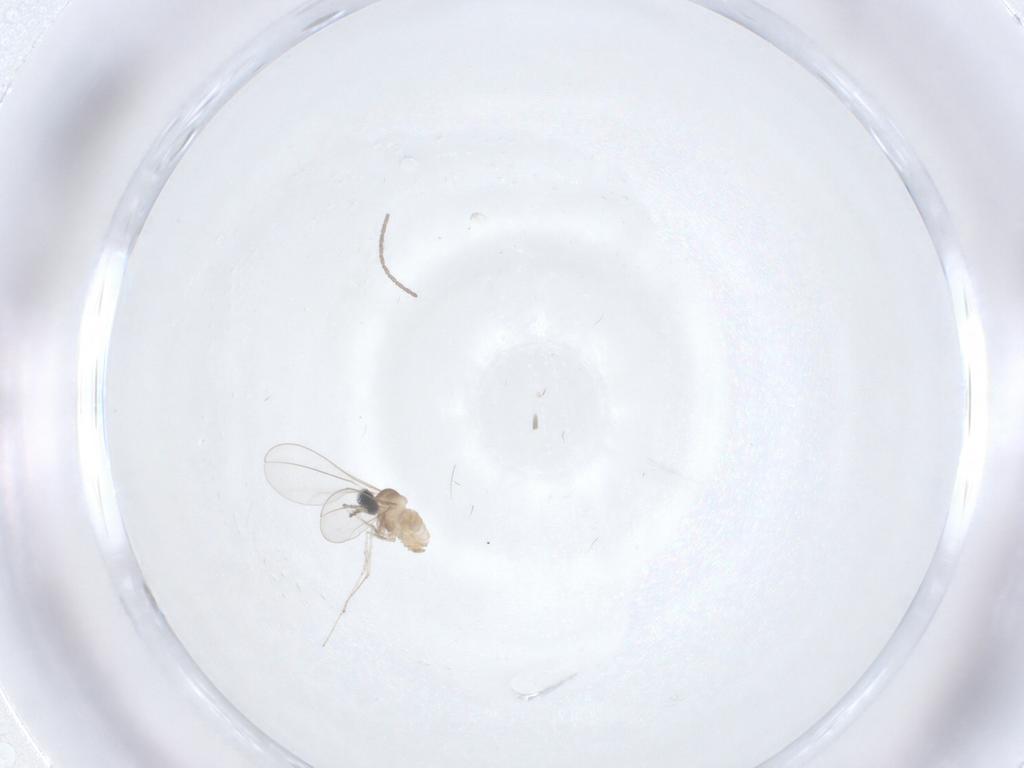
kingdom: Animalia
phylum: Arthropoda
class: Insecta
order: Diptera
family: Cecidomyiidae
